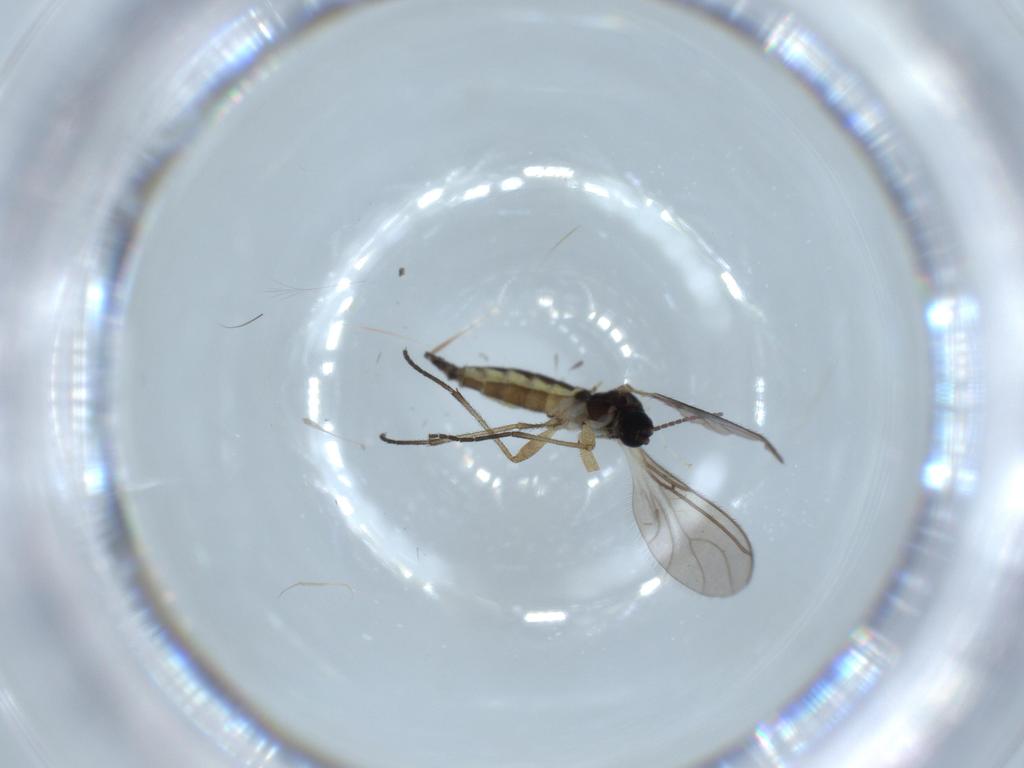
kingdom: Animalia
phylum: Arthropoda
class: Insecta
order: Diptera
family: Sciaridae
